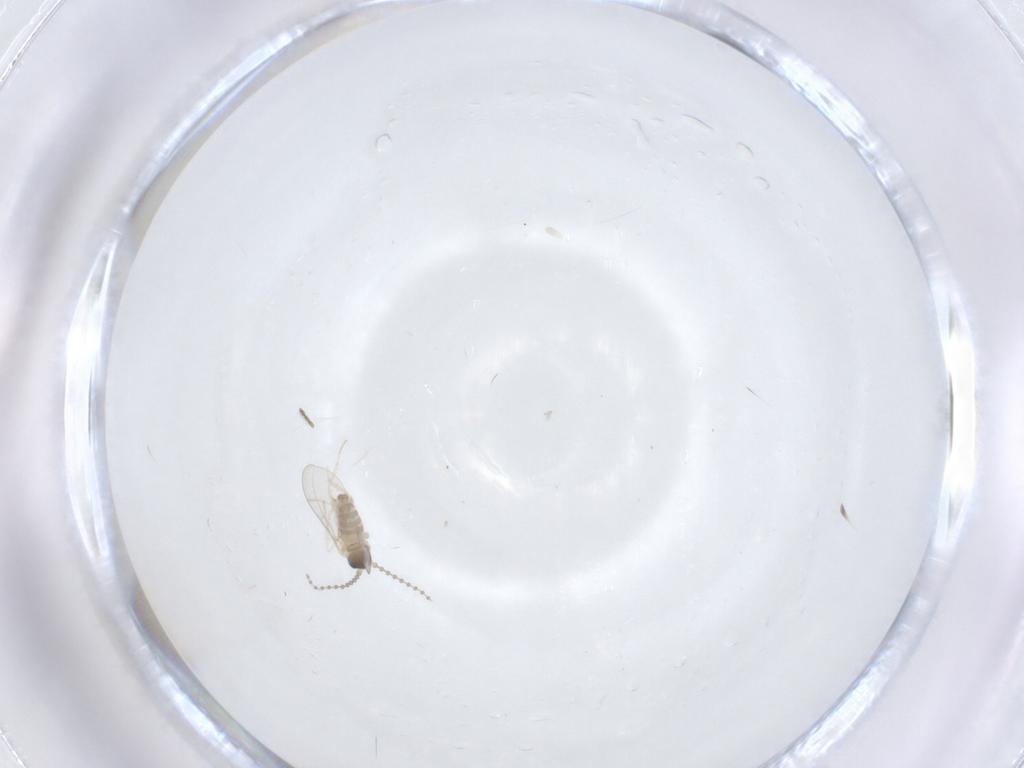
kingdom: Animalia
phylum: Arthropoda
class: Insecta
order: Diptera
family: Cecidomyiidae
